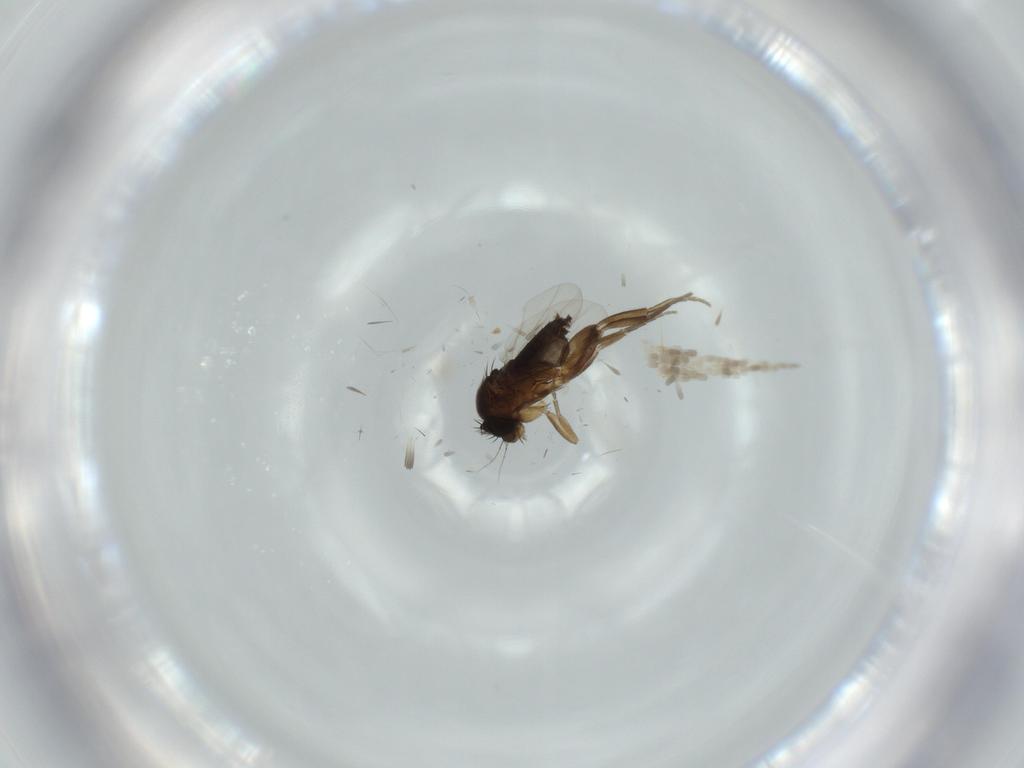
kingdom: Animalia
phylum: Arthropoda
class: Insecta
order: Diptera
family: Phoridae
